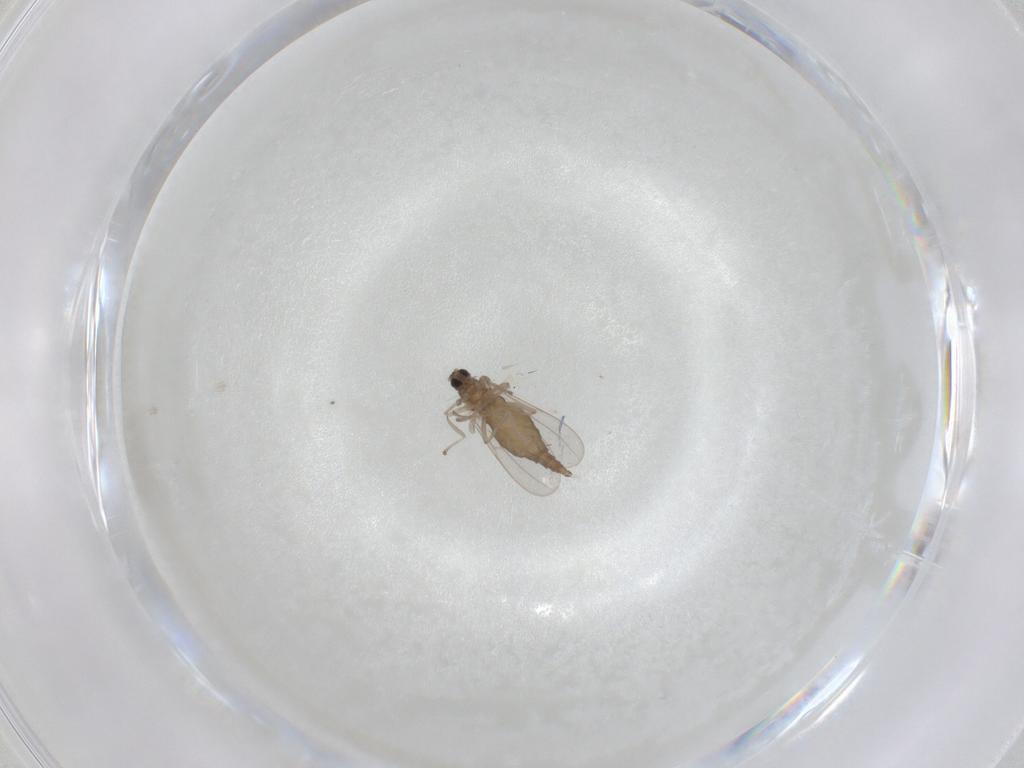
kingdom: Animalia
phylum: Arthropoda
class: Insecta
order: Diptera
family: Cecidomyiidae
